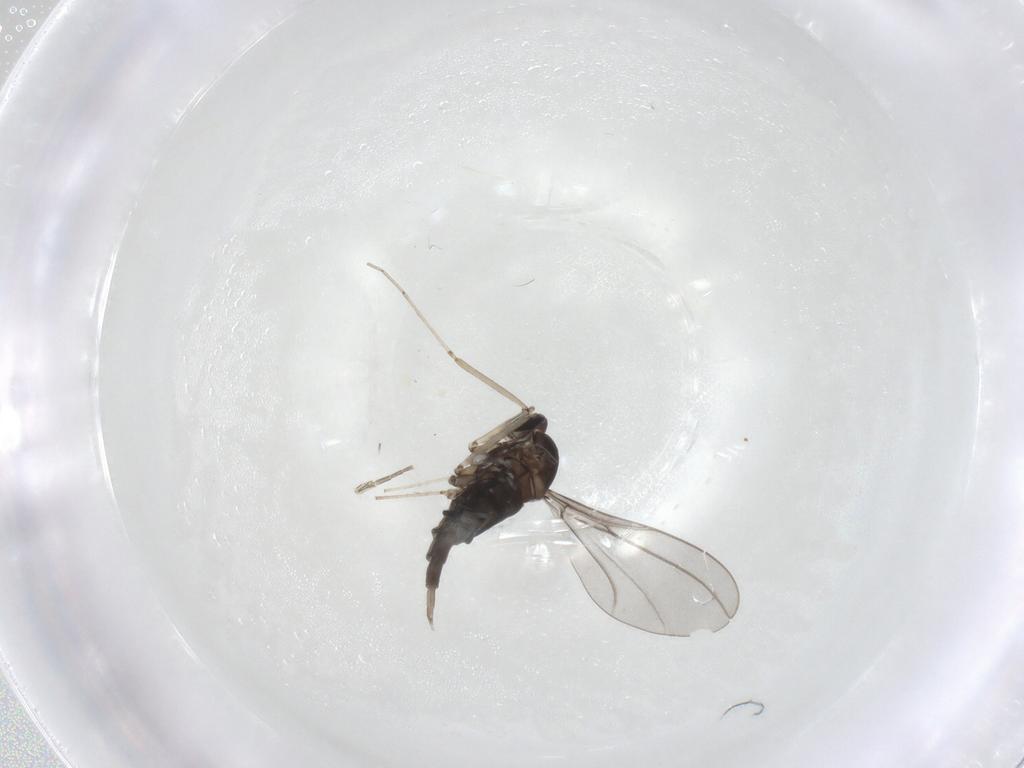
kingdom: Animalia
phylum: Arthropoda
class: Insecta
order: Diptera
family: Cecidomyiidae
